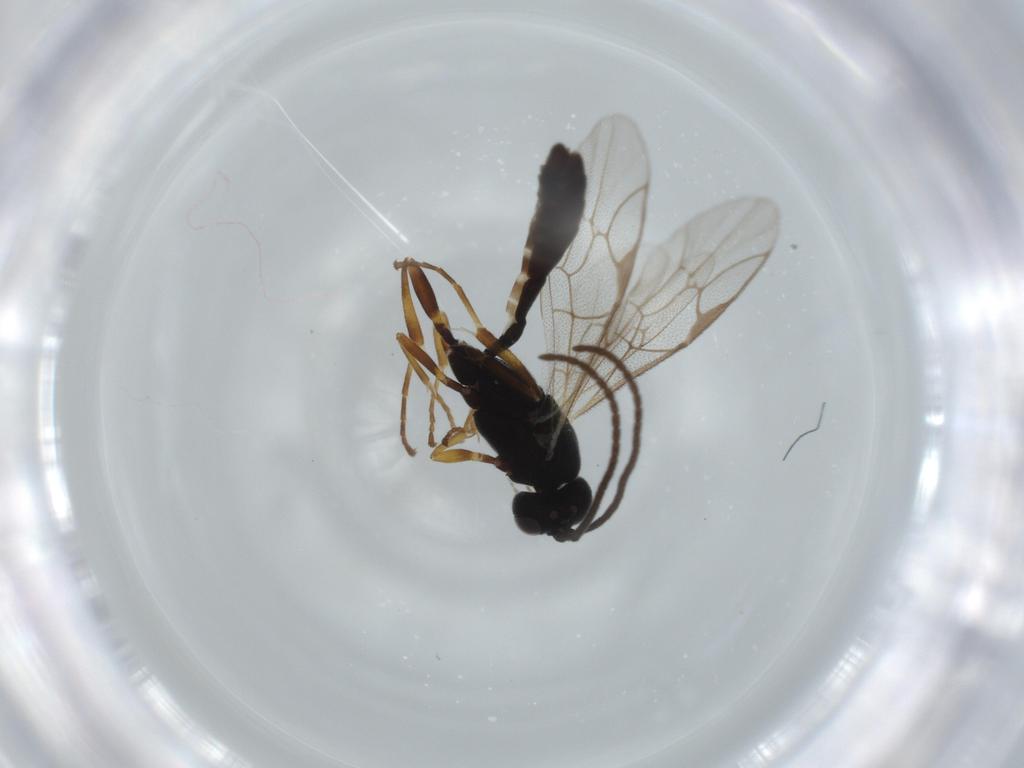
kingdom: Animalia
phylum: Arthropoda
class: Insecta
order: Hymenoptera
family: Ichneumonidae
